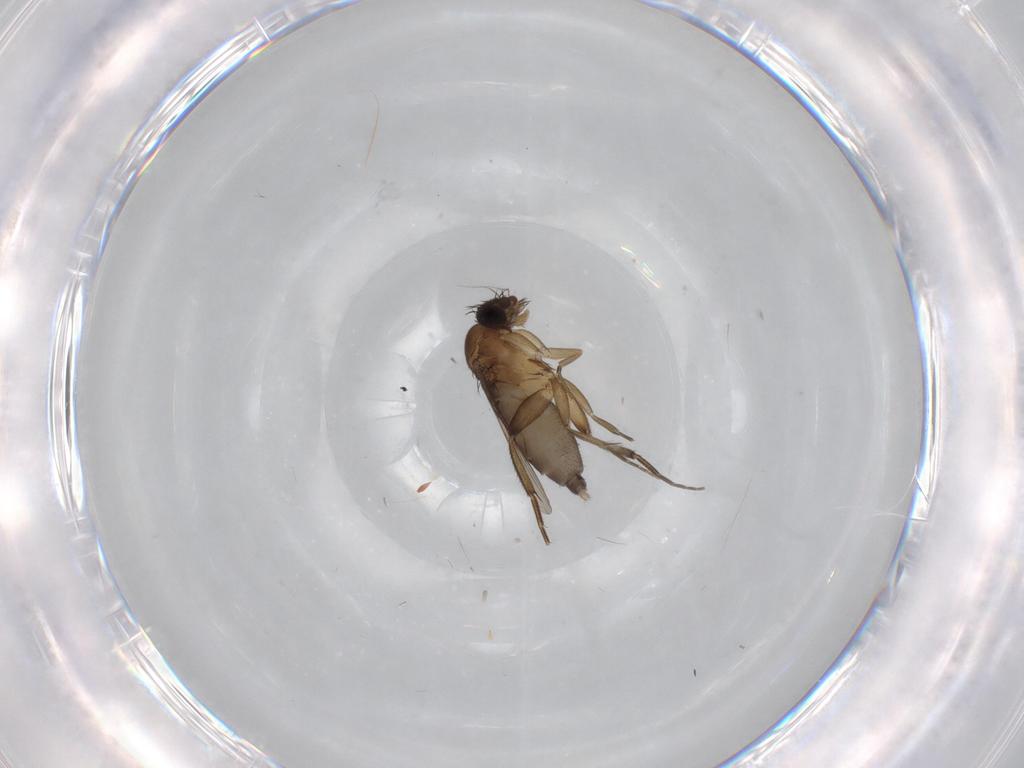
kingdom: Animalia
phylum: Arthropoda
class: Insecta
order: Diptera
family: Phoridae
